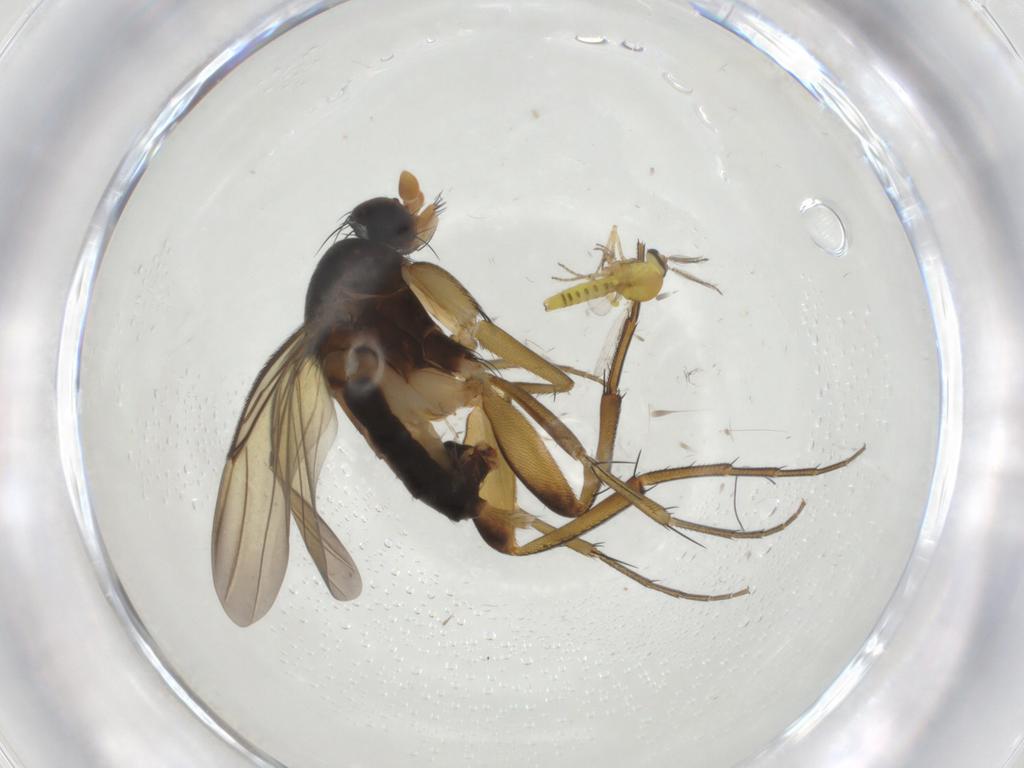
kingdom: Animalia
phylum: Arthropoda
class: Insecta
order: Diptera
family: Phoridae
